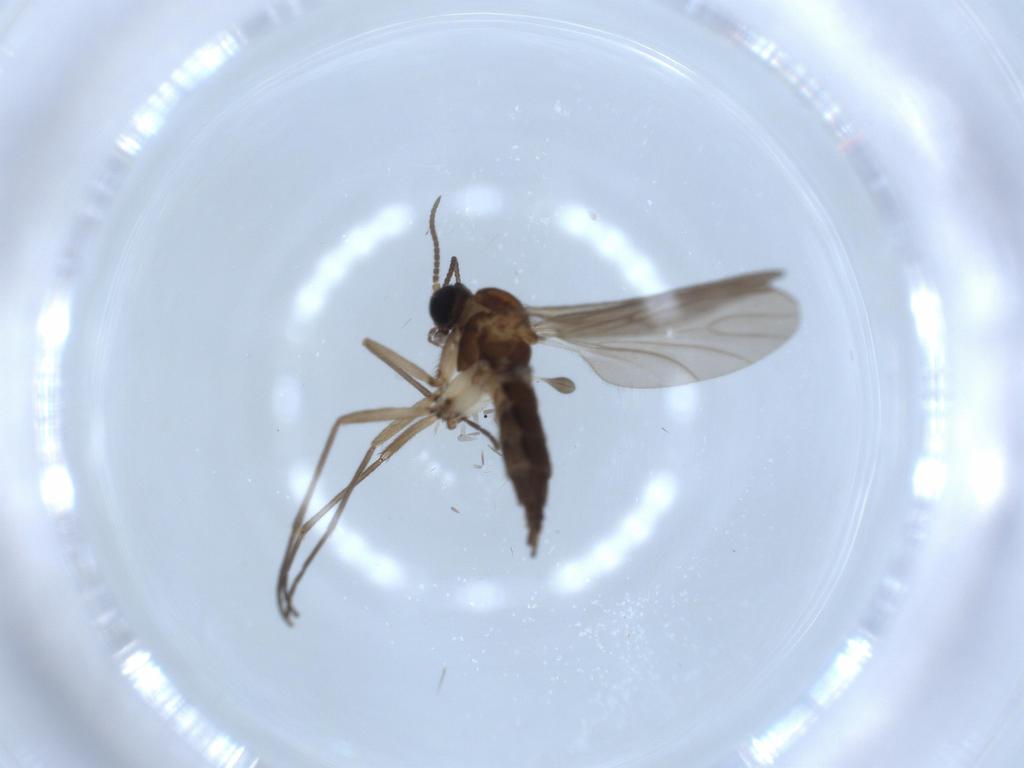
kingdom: Animalia
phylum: Arthropoda
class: Insecta
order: Diptera
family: Sciaridae
